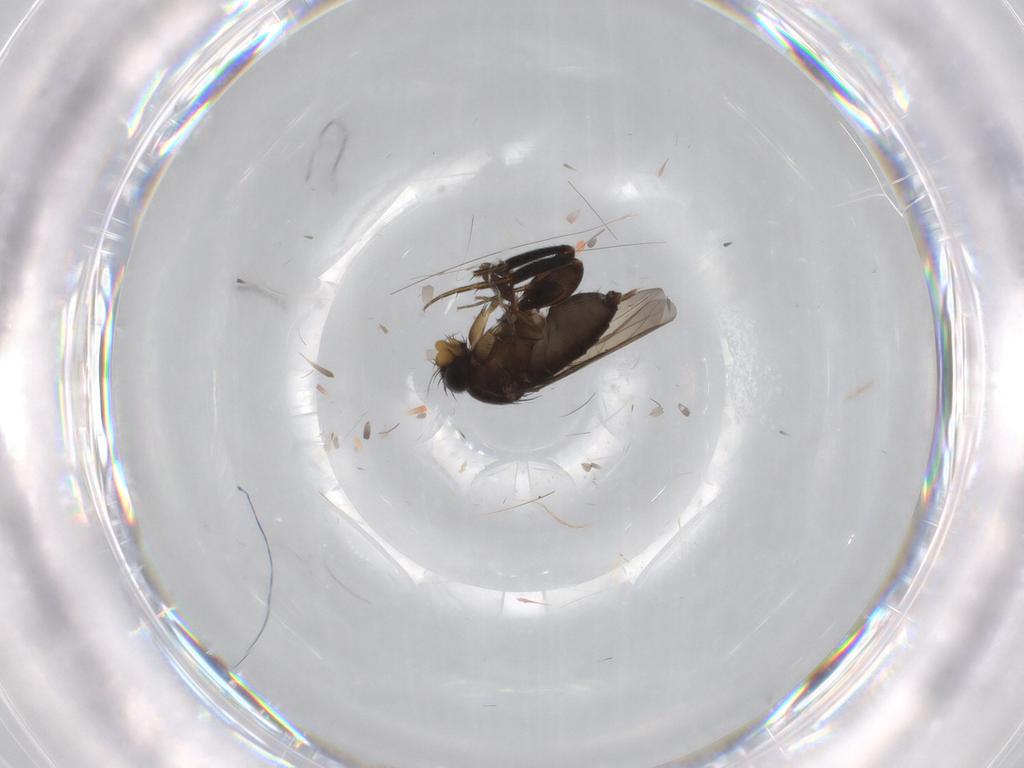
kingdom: Animalia
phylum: Arthropoda
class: Insecta
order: Diptera
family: Phoridae
